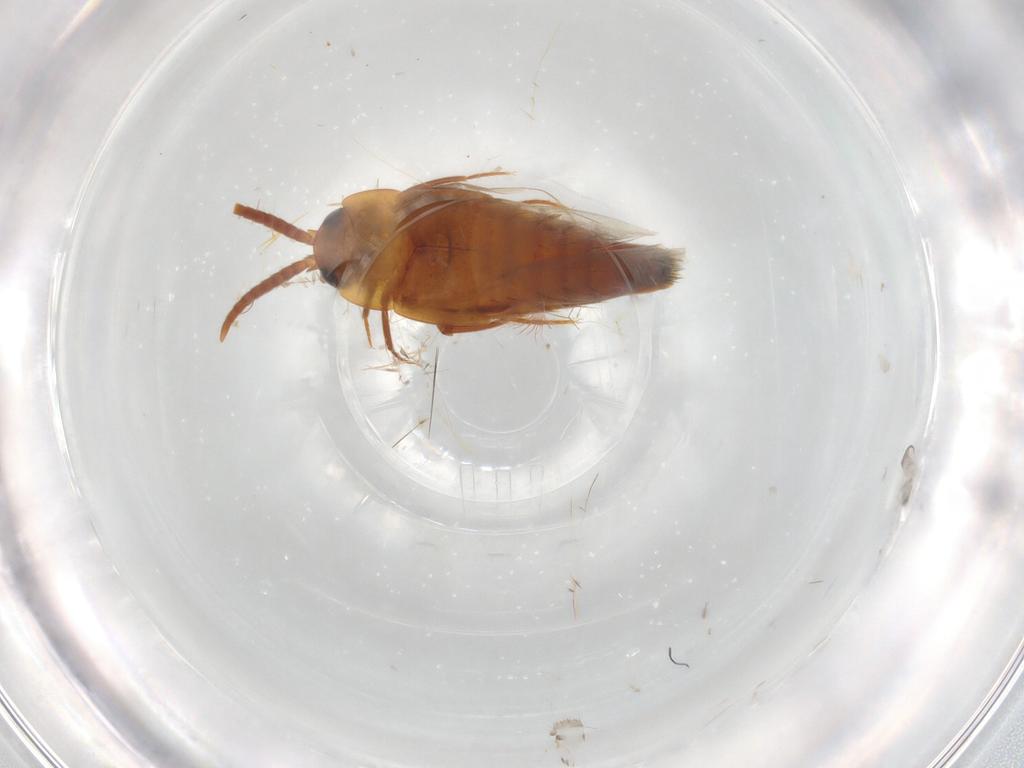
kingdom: Animalia
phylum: Arthropoda
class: Insecta
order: Coleoptera
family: Staphylinidae
